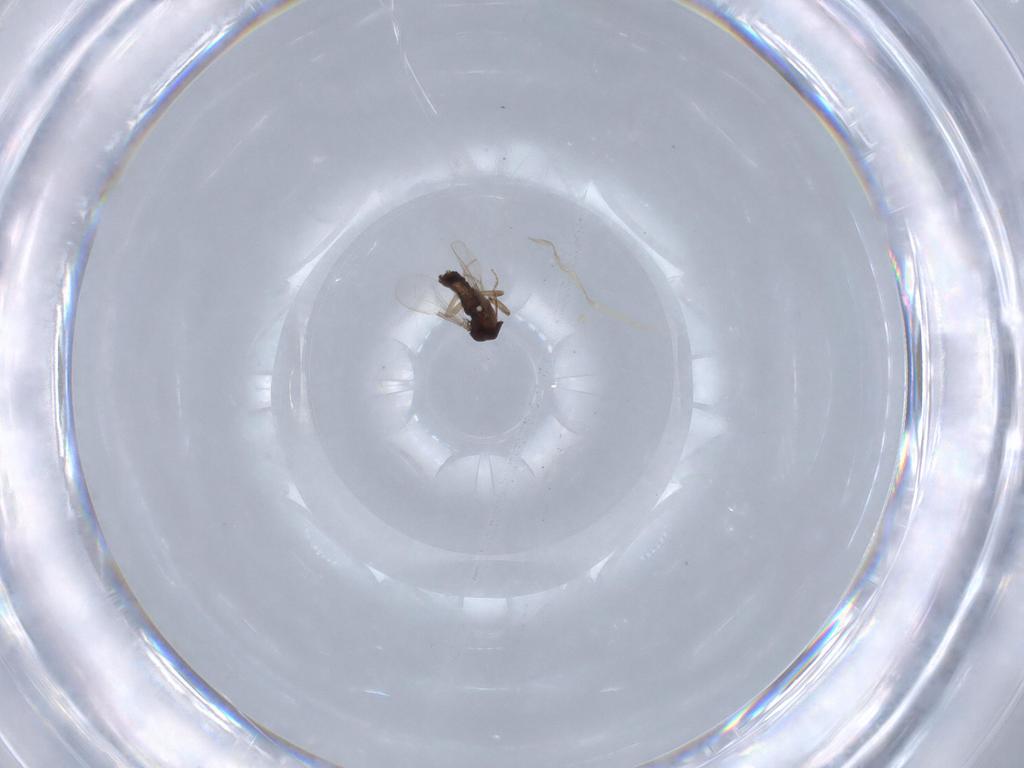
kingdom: Animalia
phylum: Arthropoda
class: Insecta
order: Diptera
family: Ceratopogonidae
